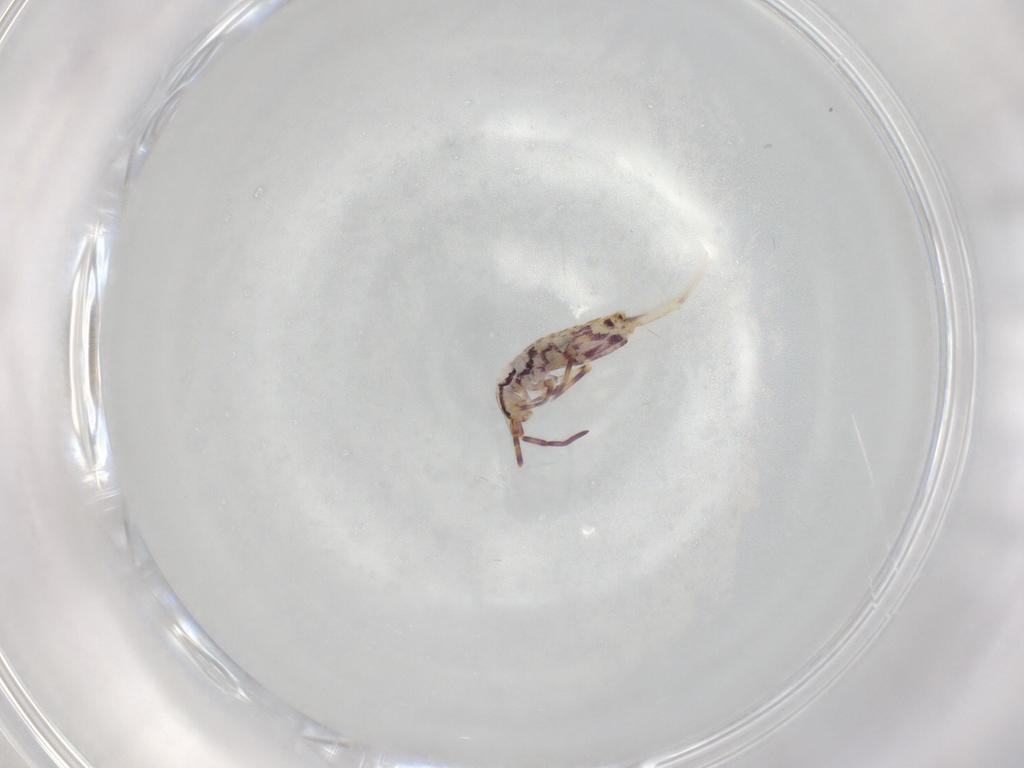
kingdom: Animalia
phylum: Arthropoda
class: Collembola
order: Entomobryomorpha
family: Entomobryidae
